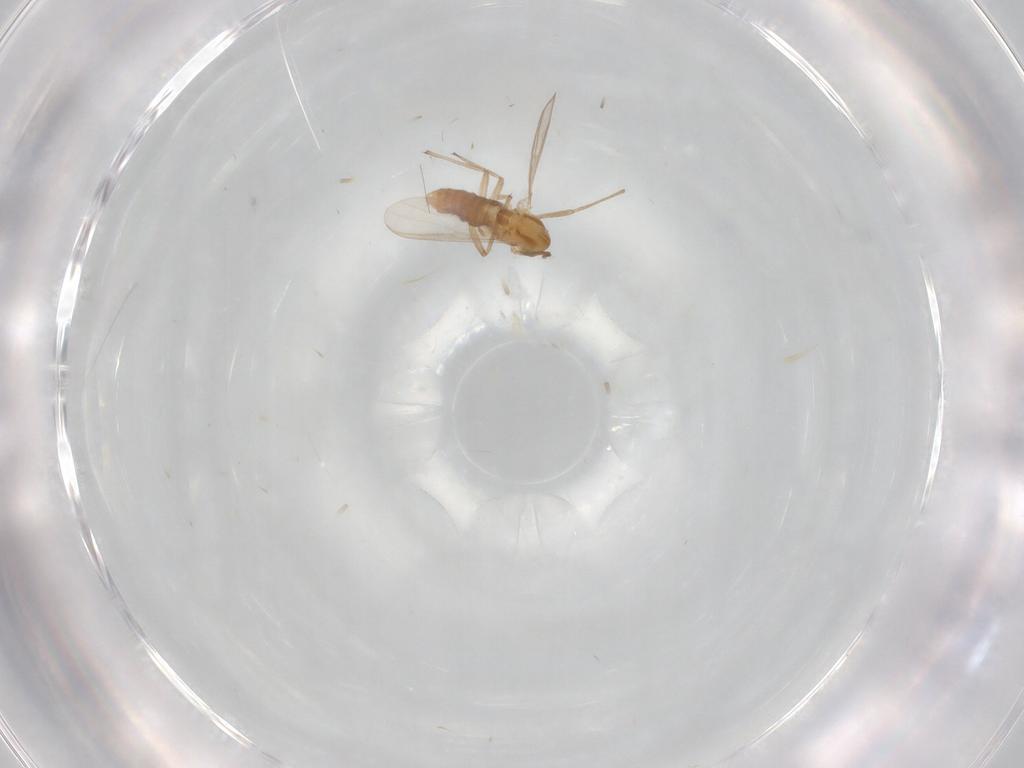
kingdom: Animalia
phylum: Arthropoda
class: Insecta
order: Diptera
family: Chironomidae
